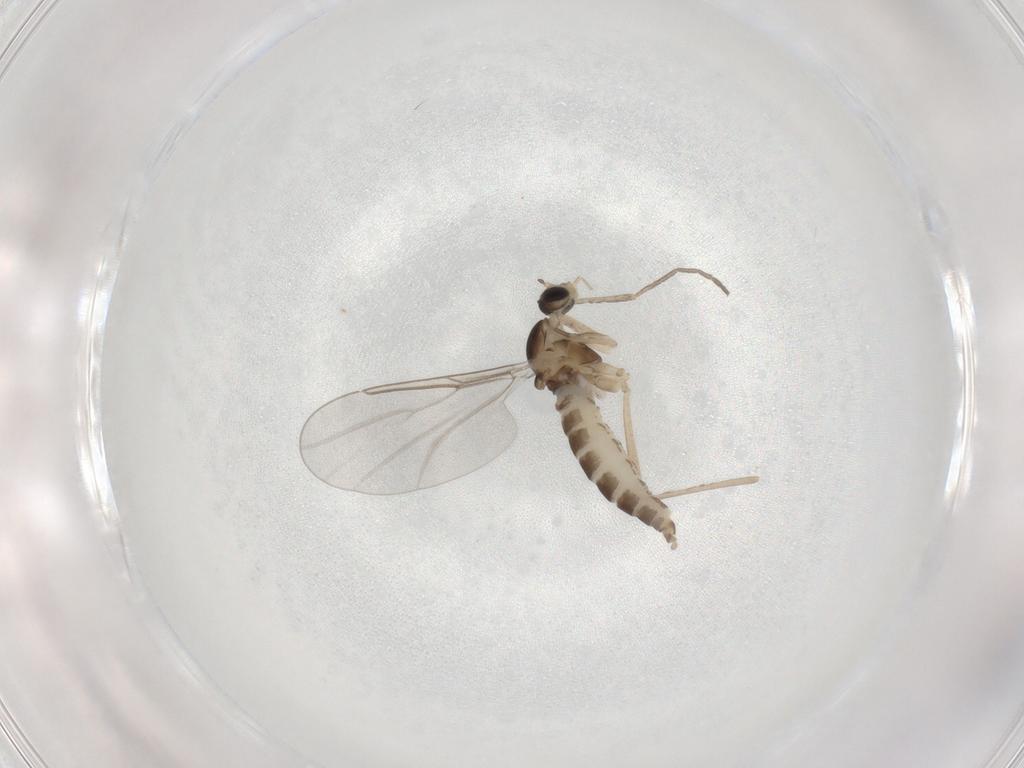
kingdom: Animalia
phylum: Arthropoda
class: Insecta
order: Diptera
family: Cecidomyiidae
